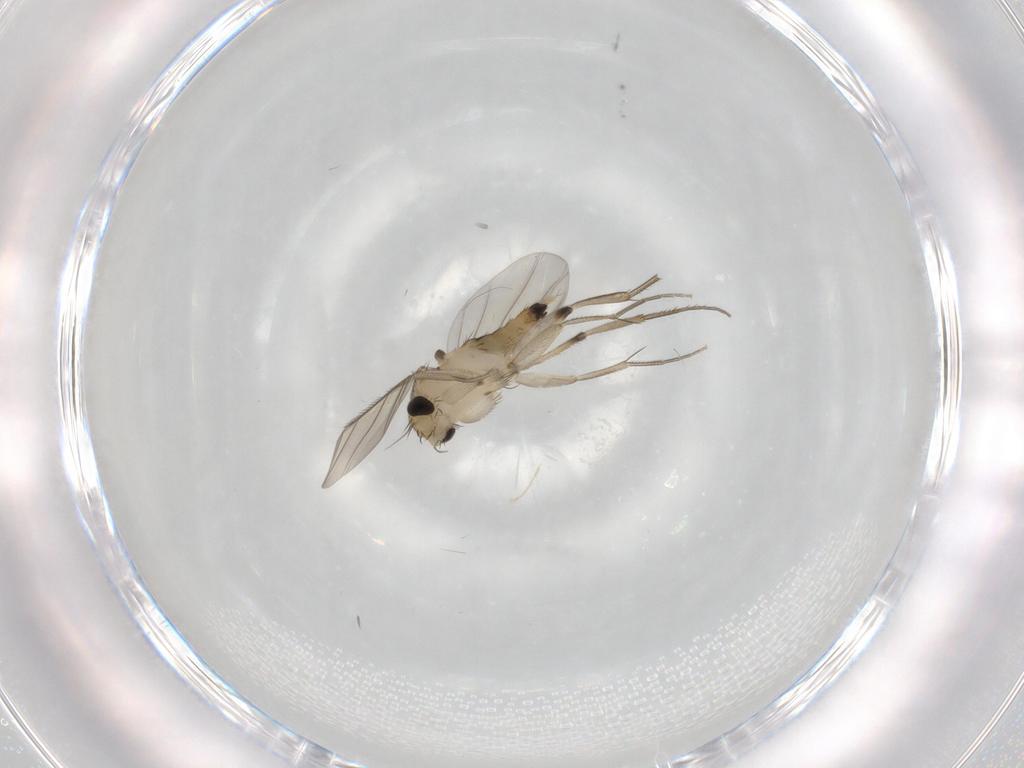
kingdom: Animalia
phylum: Arthropoda
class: Insecta
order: Diptera
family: Phoridae
